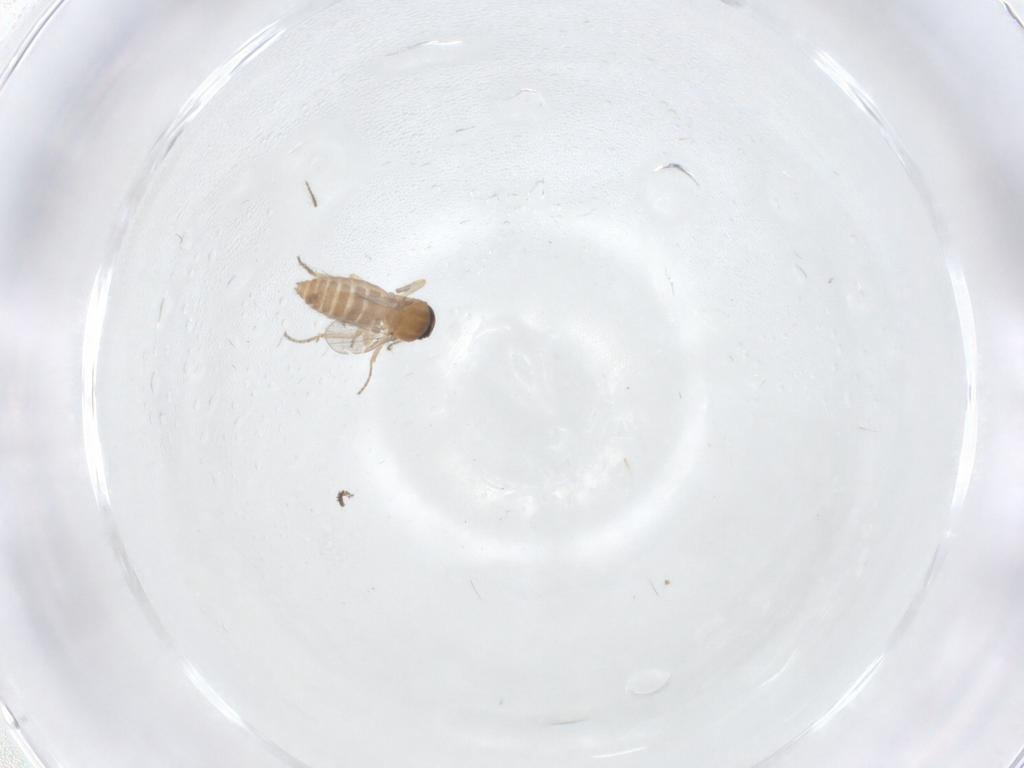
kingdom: Animalia
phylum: Arthropoda
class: Insecta
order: Diptera
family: Ceratopogonidae
